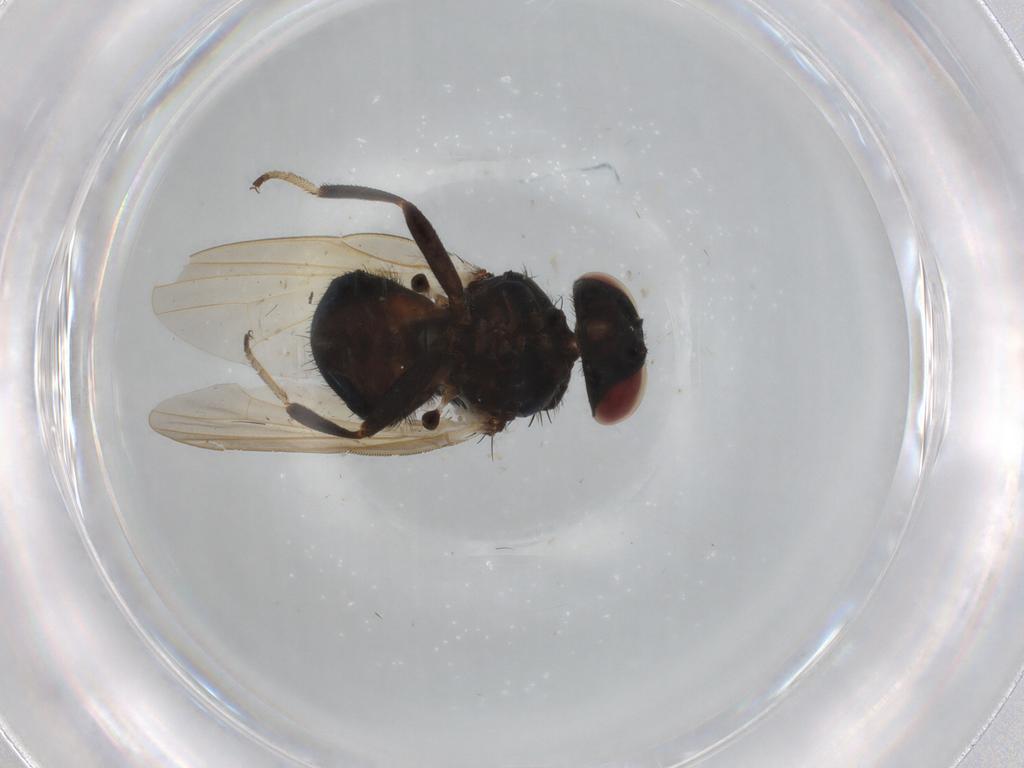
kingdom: Animalia
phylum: Arthropoda
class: Insecta
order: Diptera
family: Lonchaeidae
